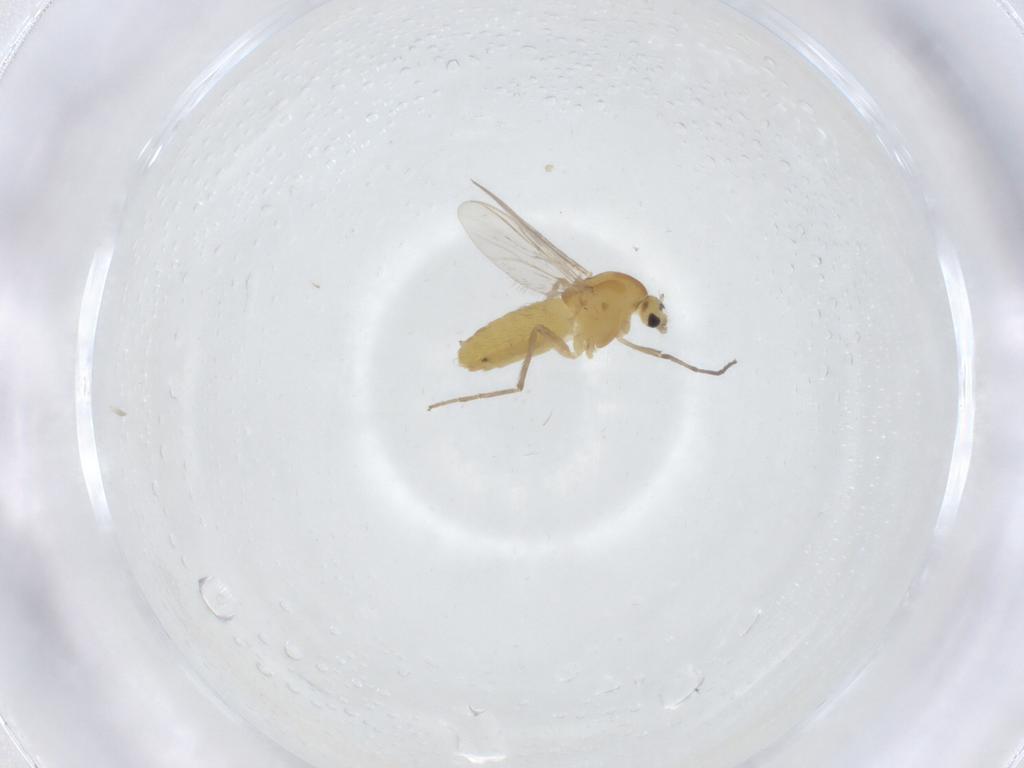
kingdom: Animalia
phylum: Arthropoda
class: Insecta
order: Diptera
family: Chironomidae
